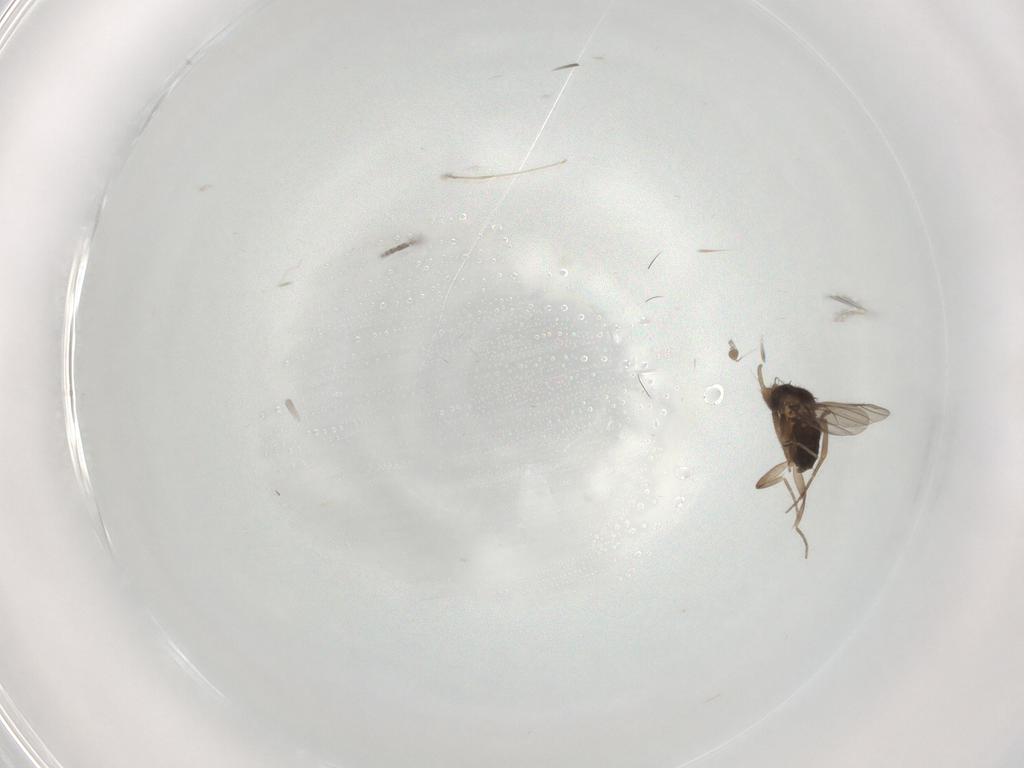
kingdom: Animalia
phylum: Arthropoda
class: Insecta
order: Diptera
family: Phoridae
